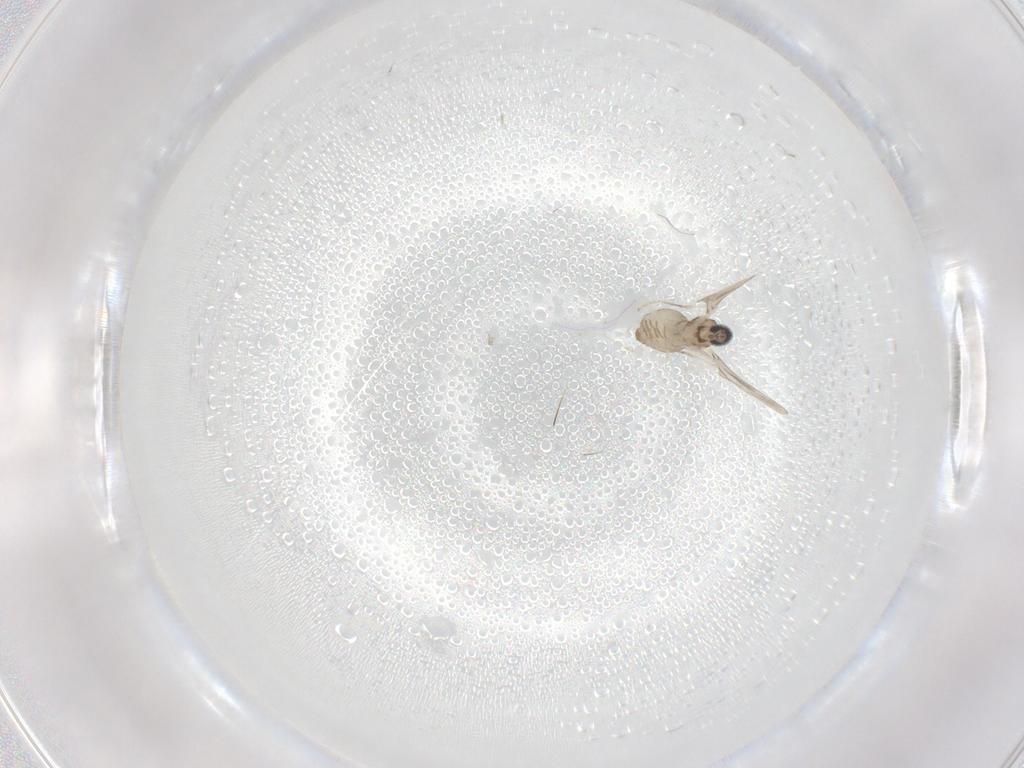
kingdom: Animalia
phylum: Arthropoda
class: Insecta
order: Diptera
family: Cecidomyiidae
